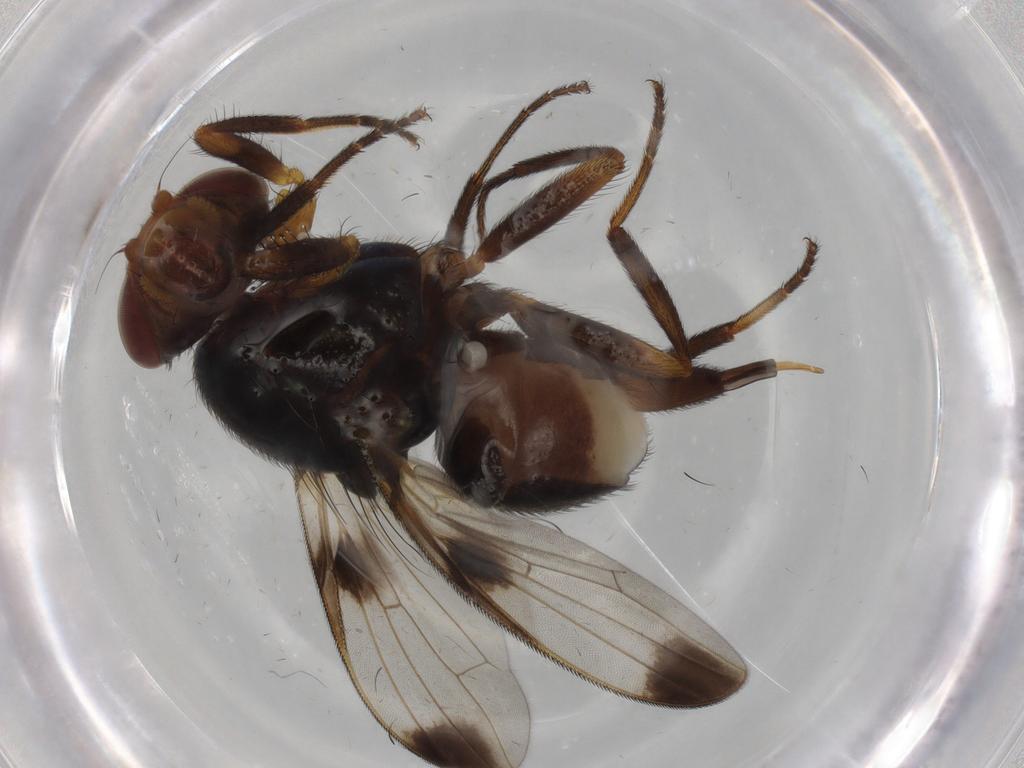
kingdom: Animalia
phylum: Arthropoda
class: Insecta
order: Diptera
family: Ulidiidae
